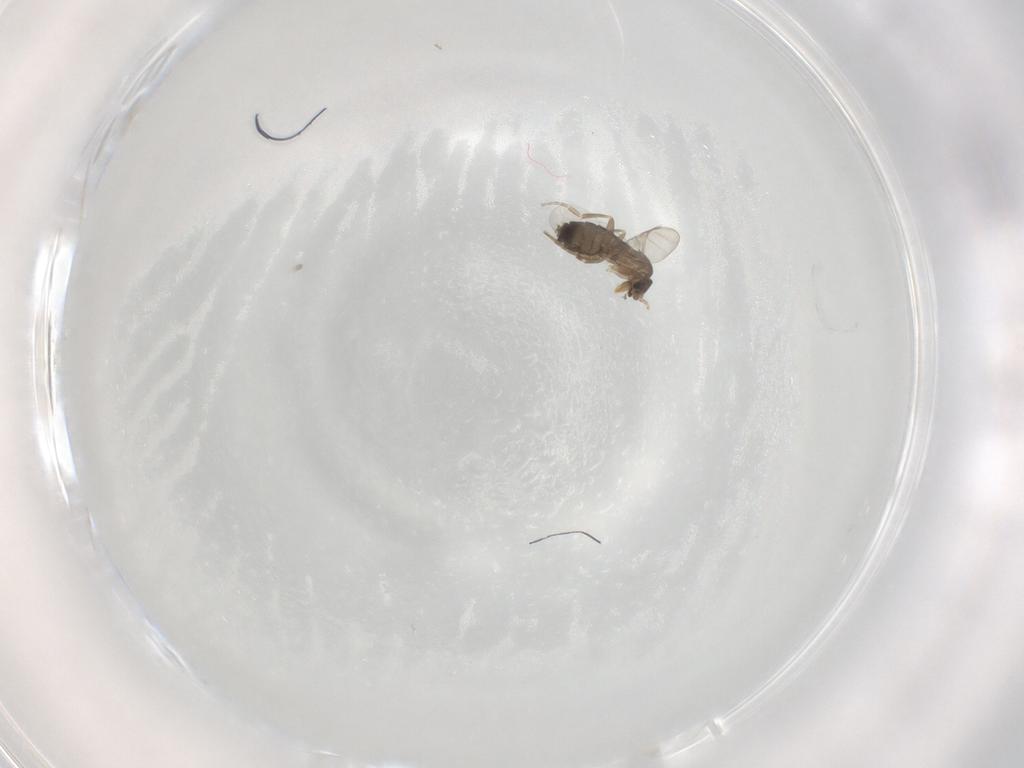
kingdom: Animalia
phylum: Arthropoda
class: Insecta
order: Diptera
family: Phoridae
